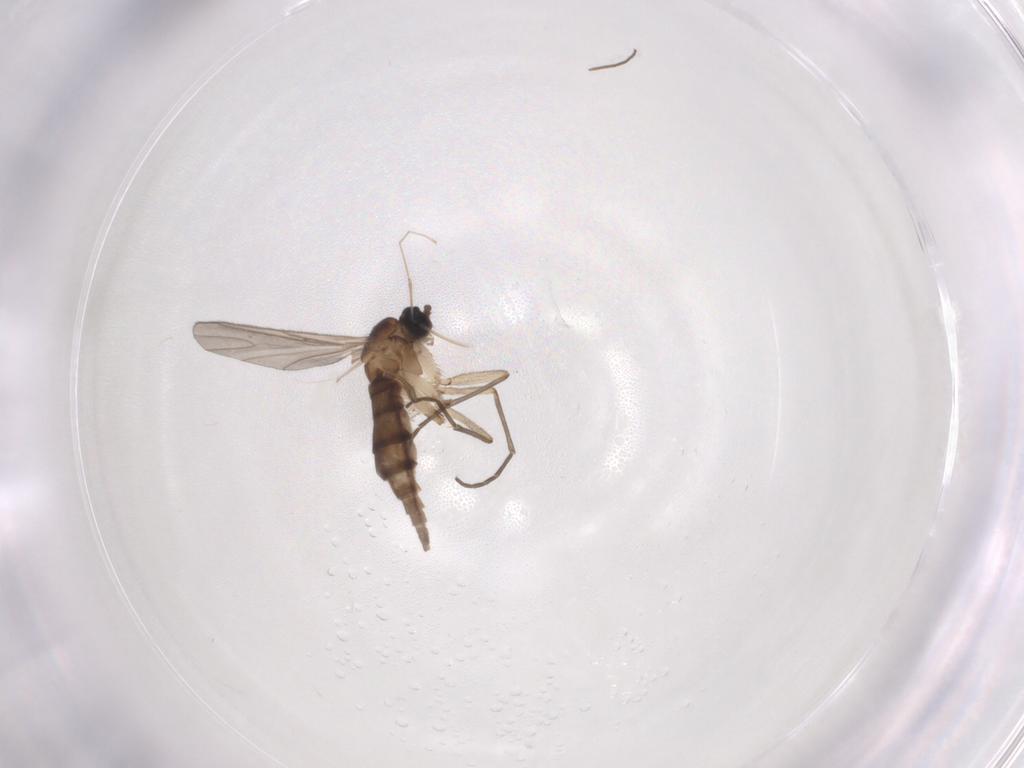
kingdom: Animalia
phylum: Arthropoda
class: Insecta
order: Diptera
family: Sciaridae
